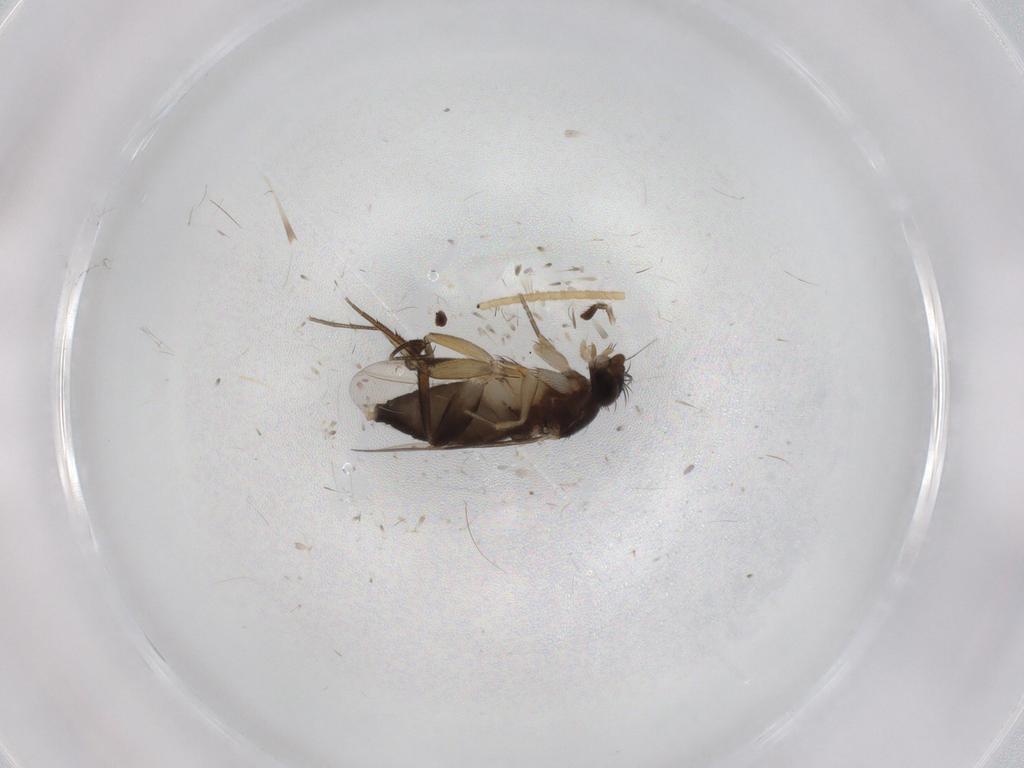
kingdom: Animalia
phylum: Arthropoda
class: Insecta
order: Diptera
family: Phoridae
